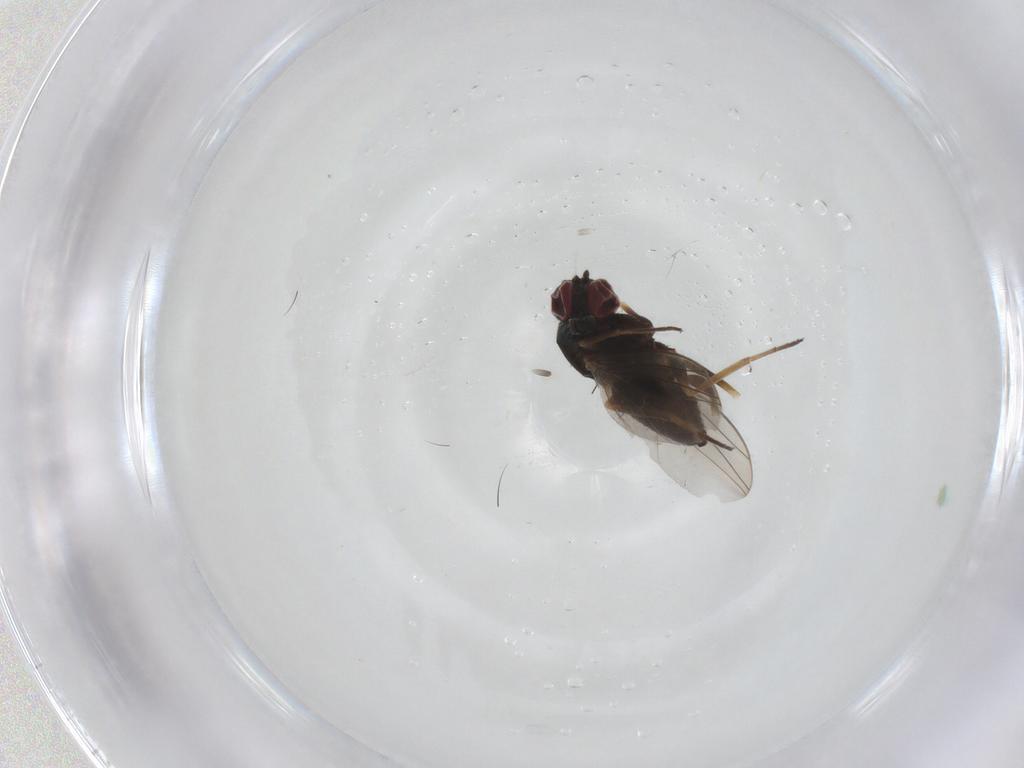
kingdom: Animalia
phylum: Arthropoda
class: Insecta
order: Diptera
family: Dolichopodidae
